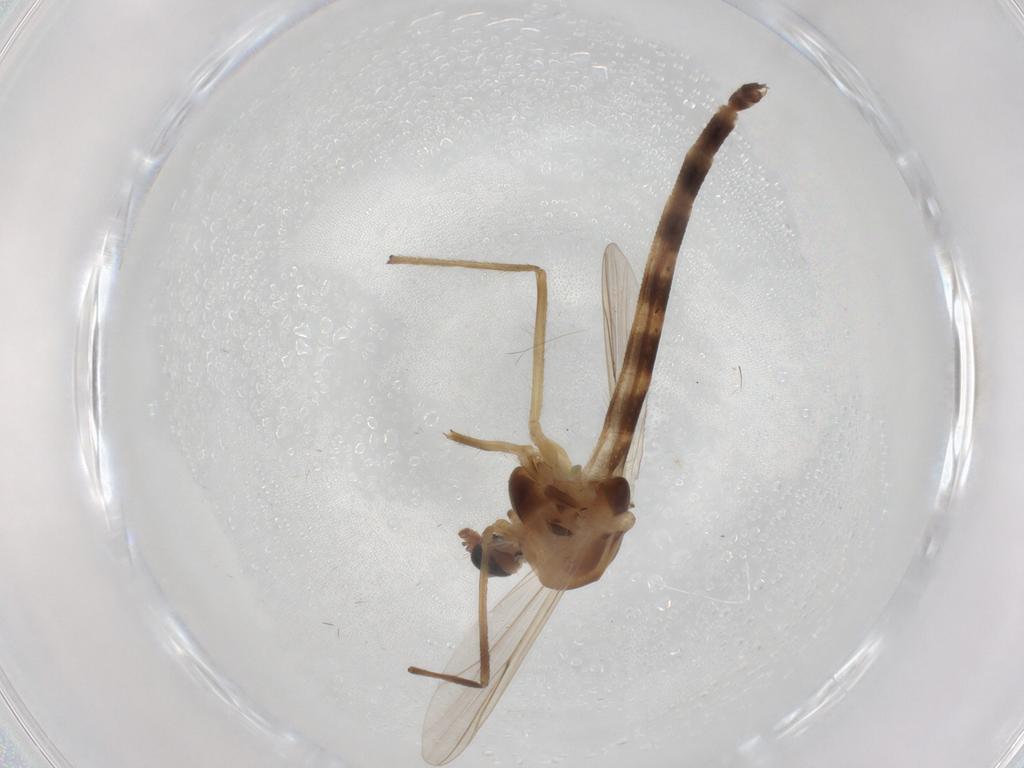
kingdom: Animalia
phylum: Arthropoda
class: Insecta
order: Diptera
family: Chironomidae
